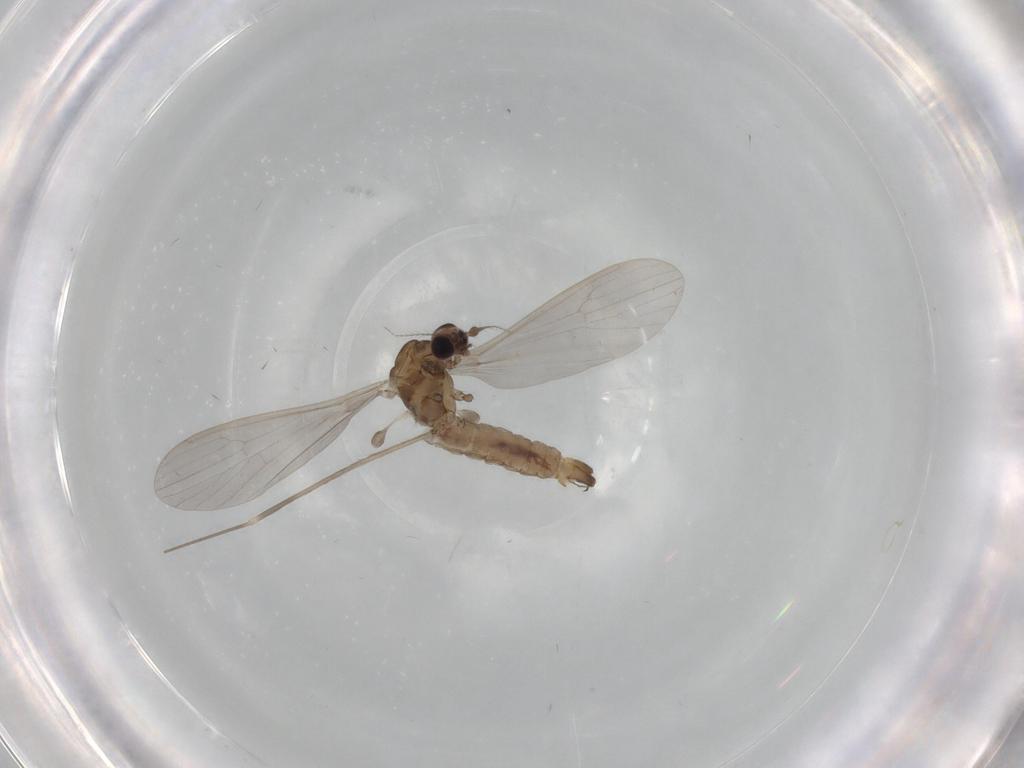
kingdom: Animalia
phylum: Arthropoda
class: Insecta
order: Diptera
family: Limoniidae
